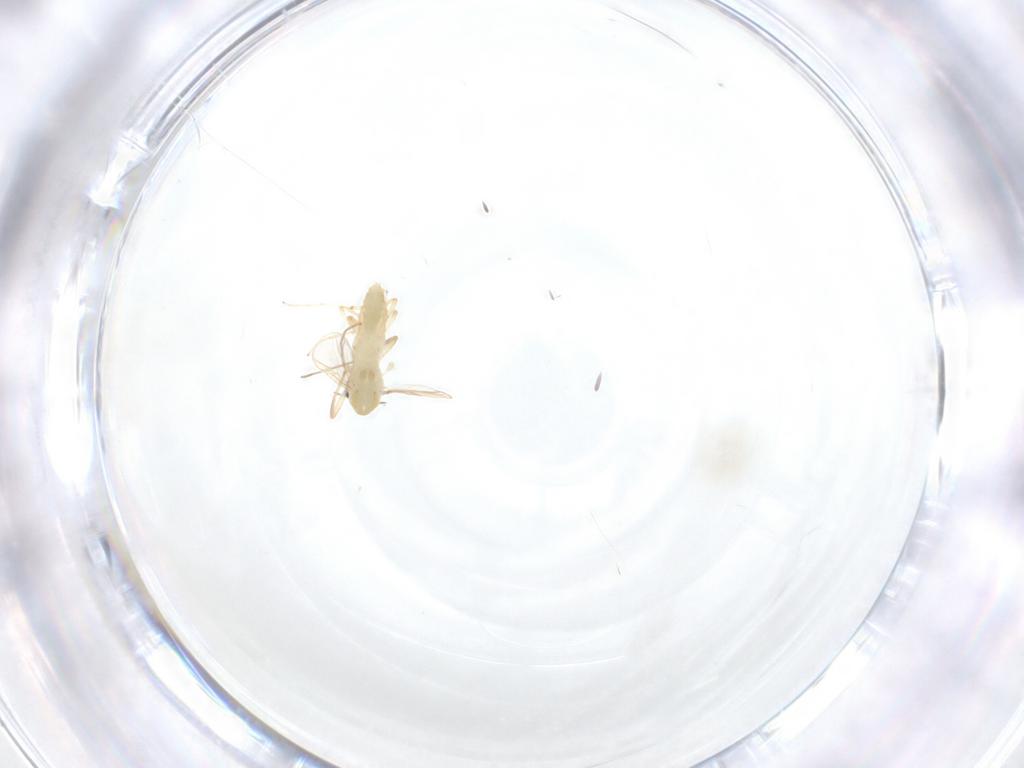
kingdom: Animalia
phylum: Arthropoda
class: Insecta
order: Diptera
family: Chironomidae
